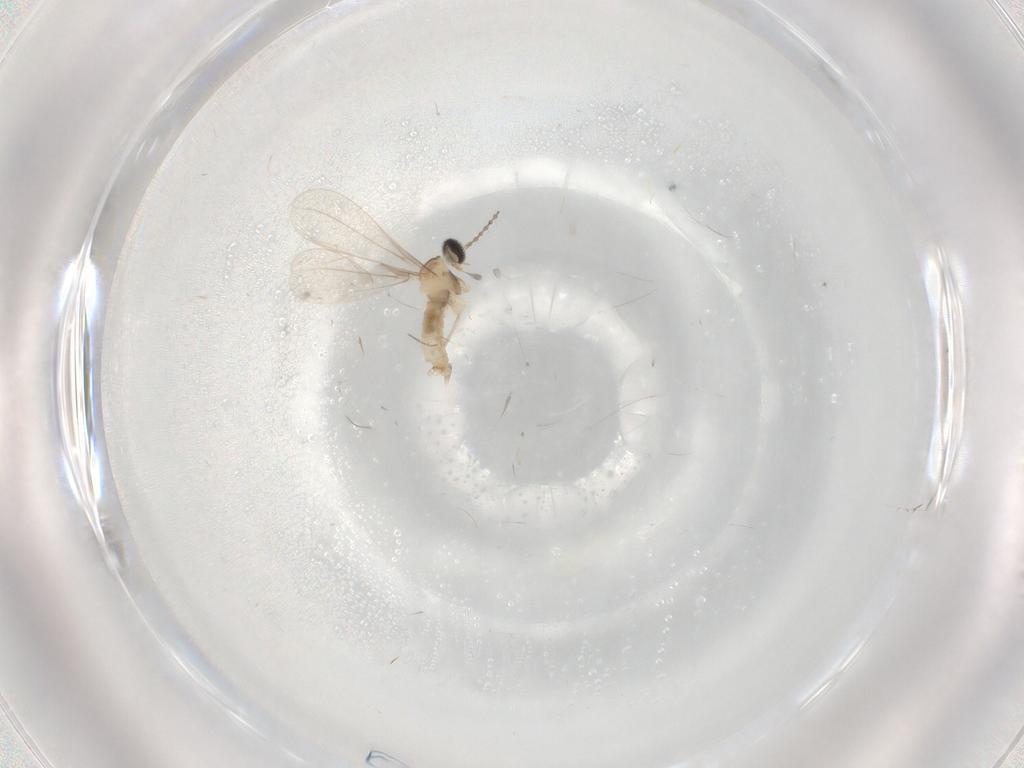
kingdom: Animalia
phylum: Arthropoda
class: Insecta
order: Diptera
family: Cecidomyiidae
